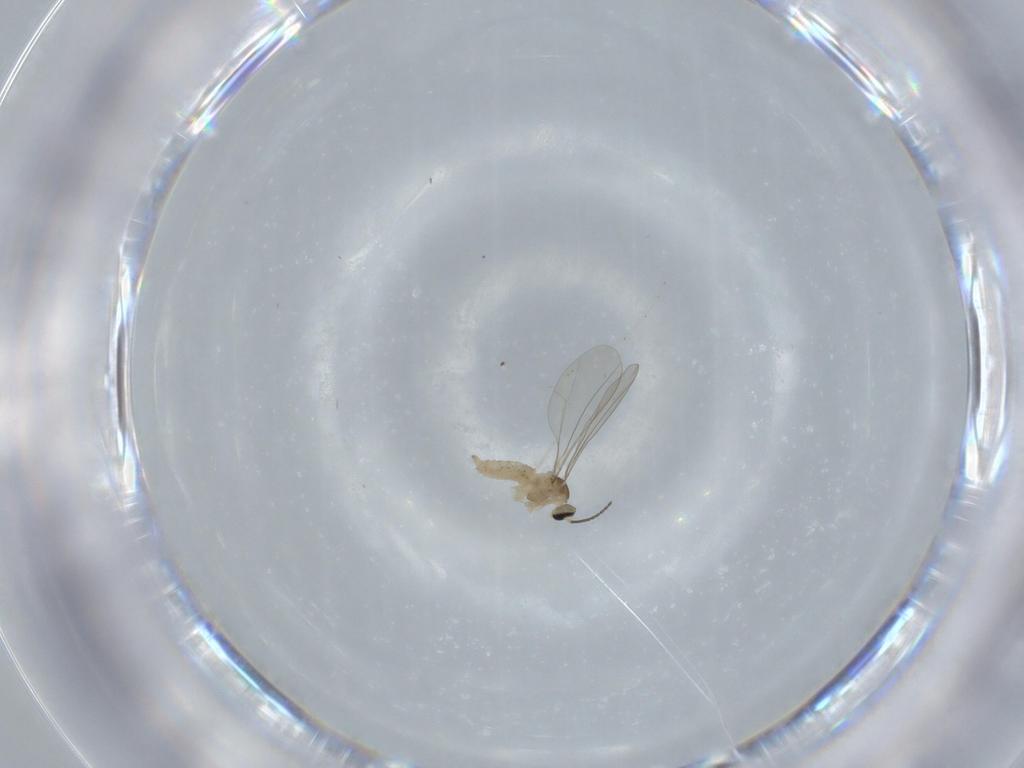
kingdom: Animalia
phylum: Arthropoda
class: Insecta
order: Diptera
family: Cecidomyiidae
